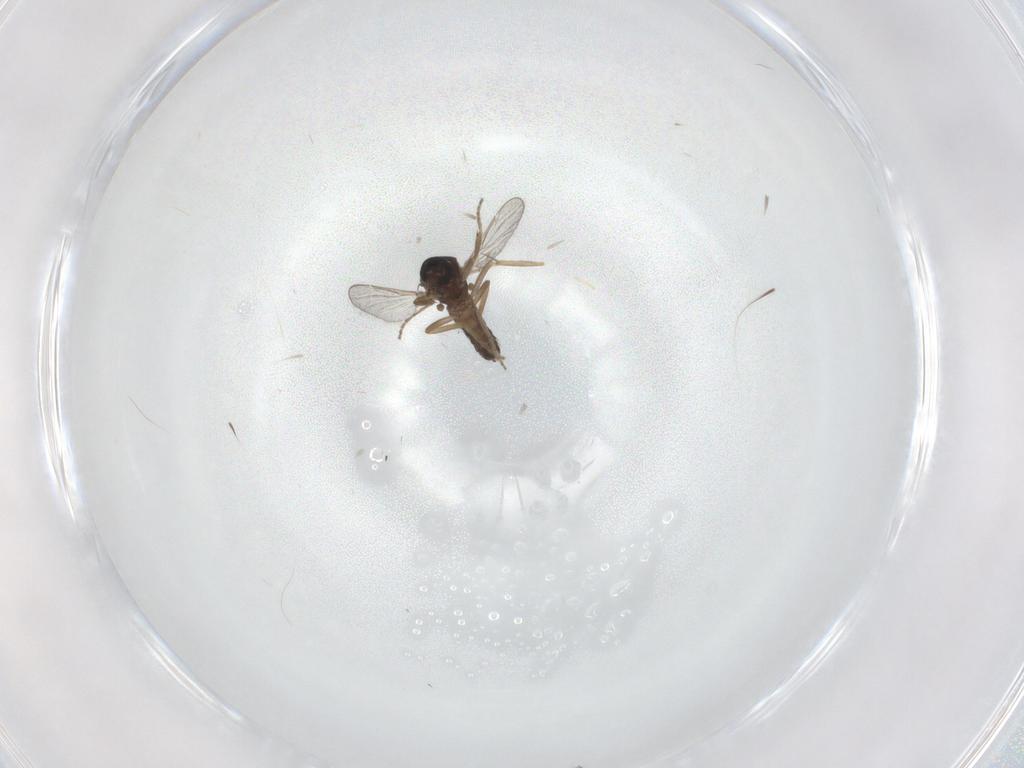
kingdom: Animalia
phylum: Arthropoda
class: Insecta
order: Diptera
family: Ceratopogonidae
